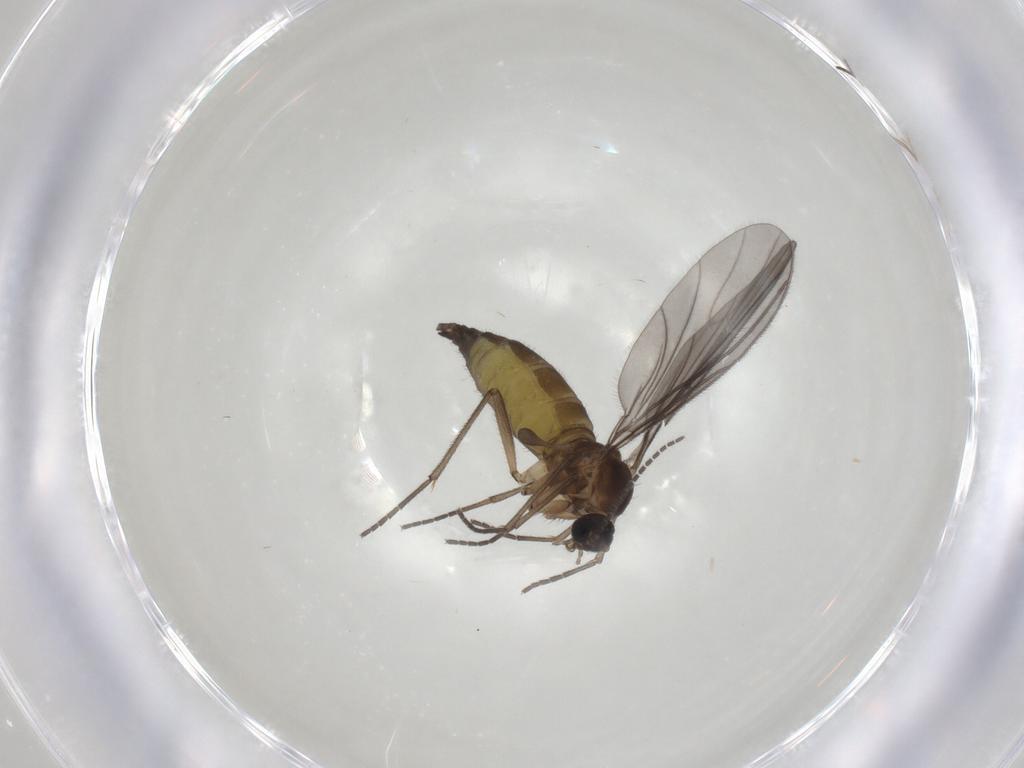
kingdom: Animalia
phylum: Arthropoda
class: Insecta
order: Diptera
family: Sciaridae
